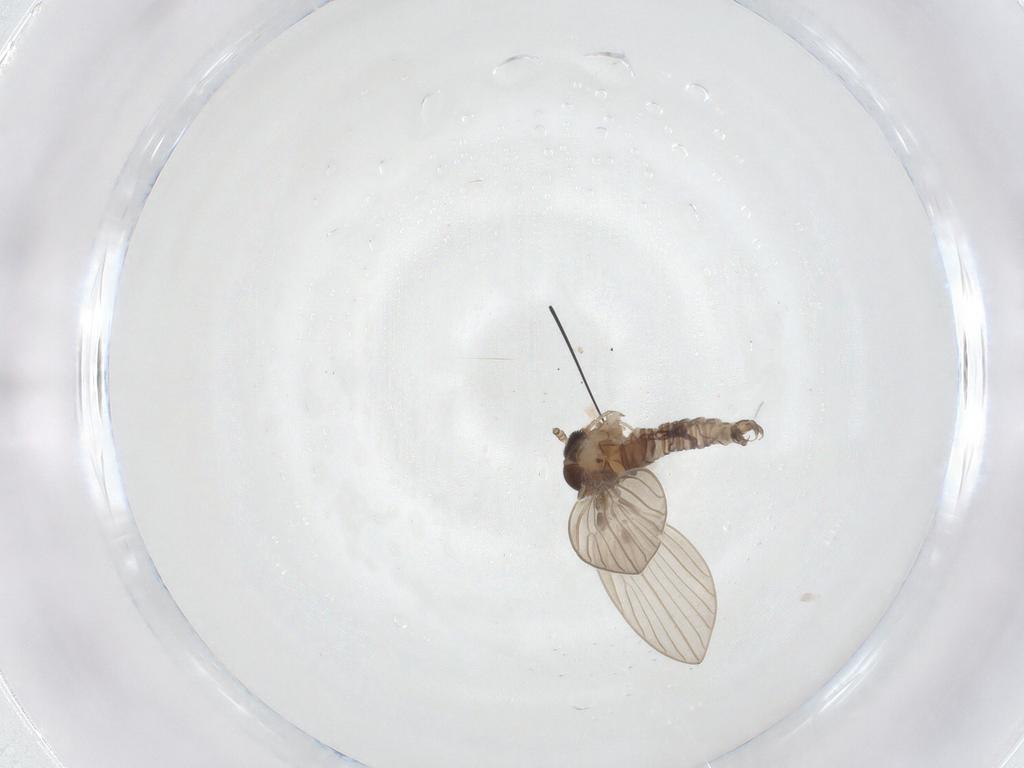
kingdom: Animalia
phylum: Arthropoda
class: Insecta
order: Diptera
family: Psychodidae
